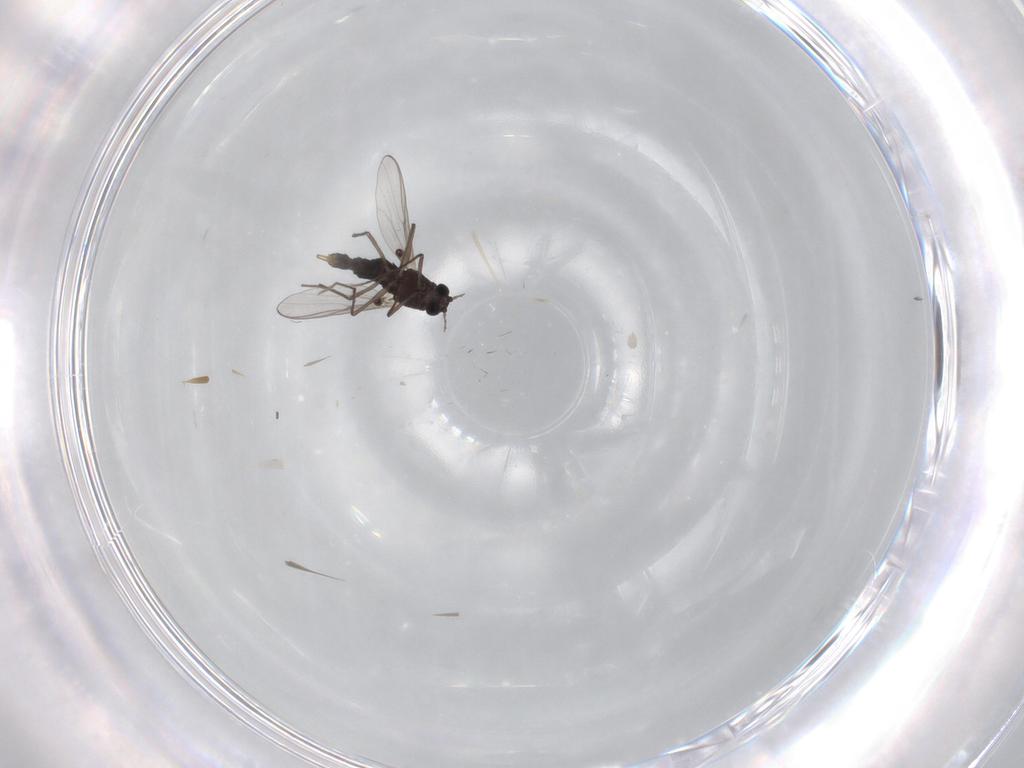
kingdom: Animalia
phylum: Arthropoda
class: Insecta
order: Diptera
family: Chironomidae
